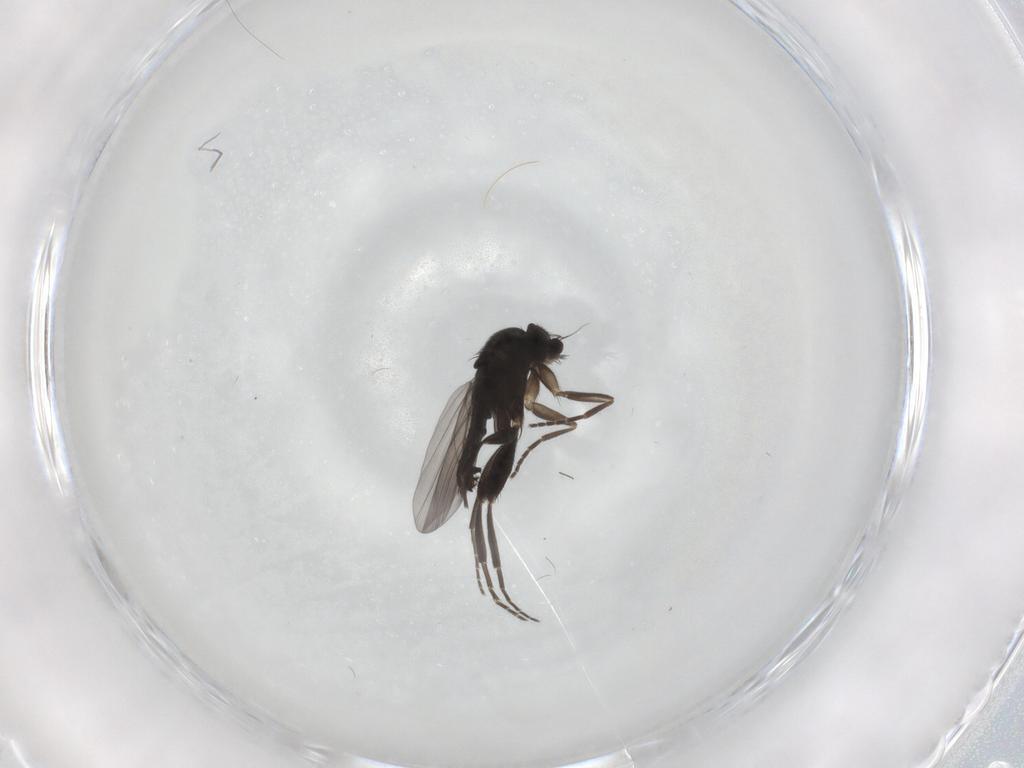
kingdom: Animalia
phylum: Arthropoda
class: Insecta
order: Diptera
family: Phoridae
